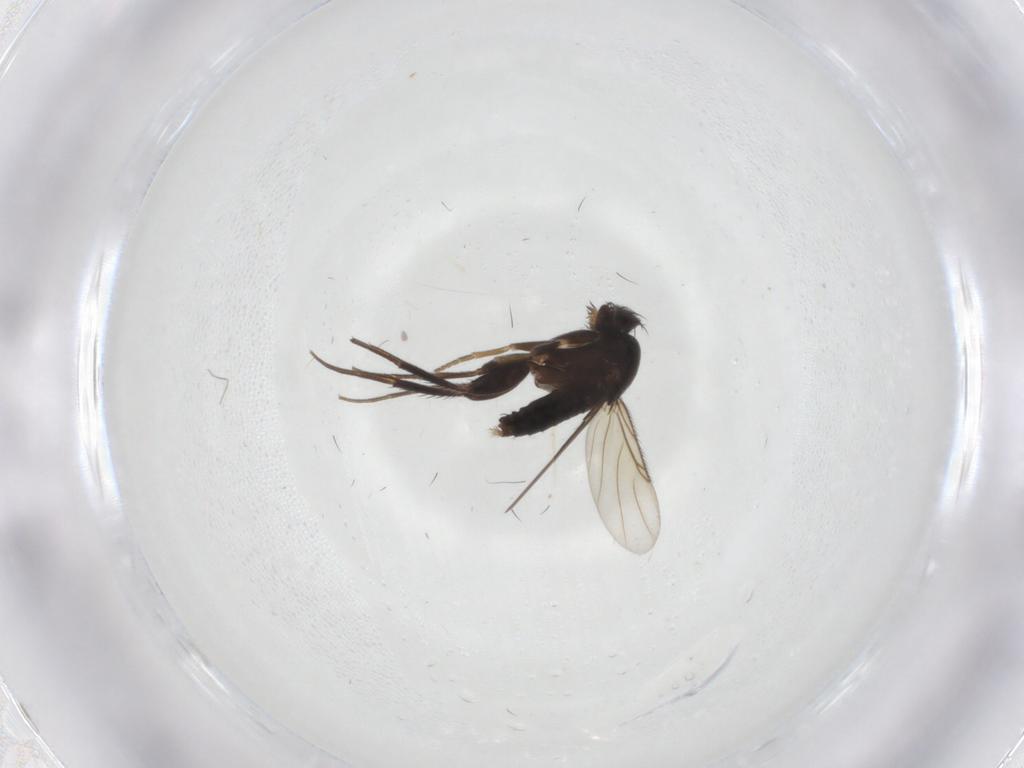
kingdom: Animalia
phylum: Arthropoda
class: Insecta
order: Diptera
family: Phoridae
